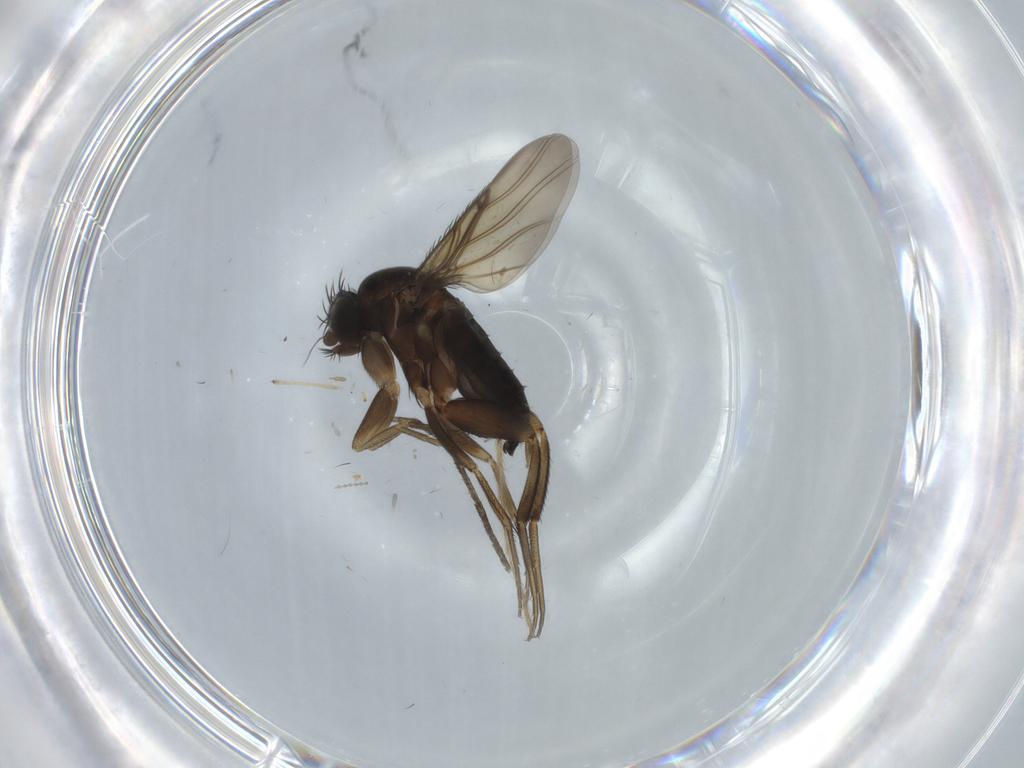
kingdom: Animalia
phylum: Arthropoda
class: Insecta
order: Diptera
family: Phoridae
